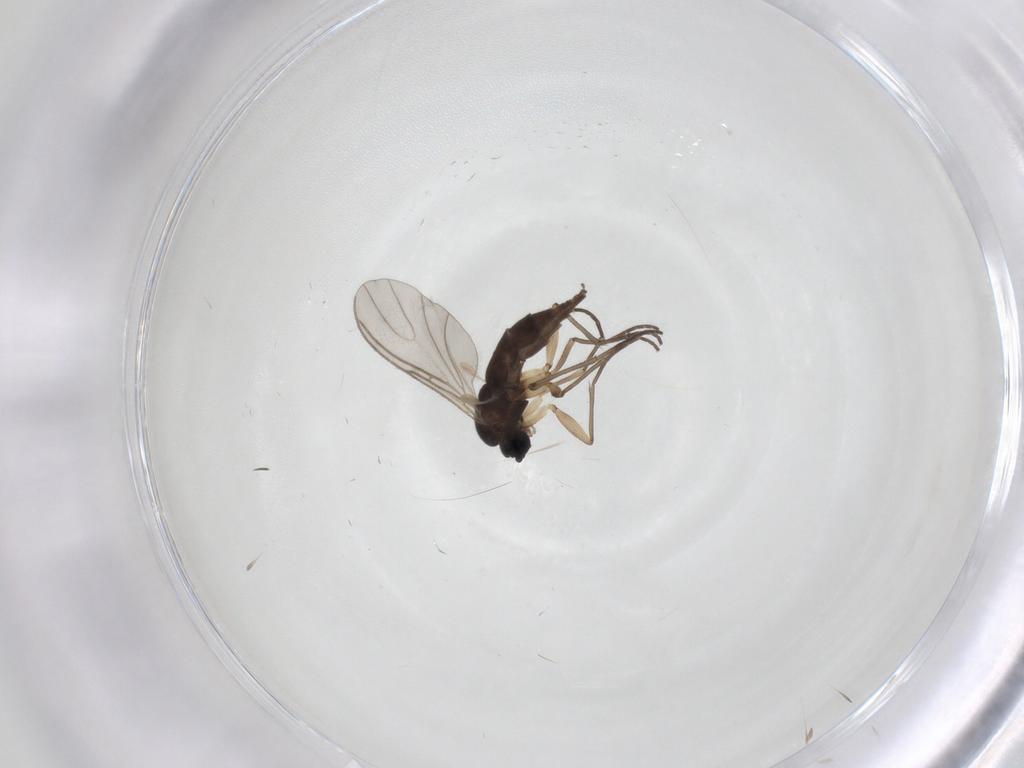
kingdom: Animalia
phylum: Arthropoda
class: Insecta
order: Diptera
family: Sciaridae
